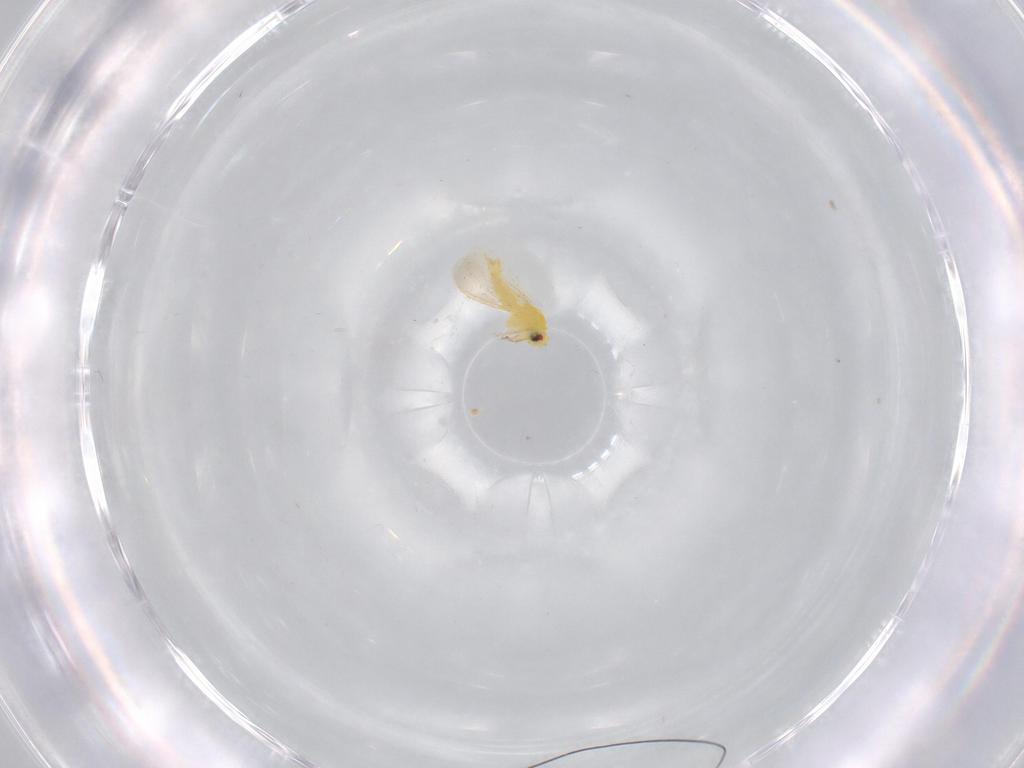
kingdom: Animalia
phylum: Arthropoda
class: Insecta
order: Hemiptera
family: Aleyrodidae
